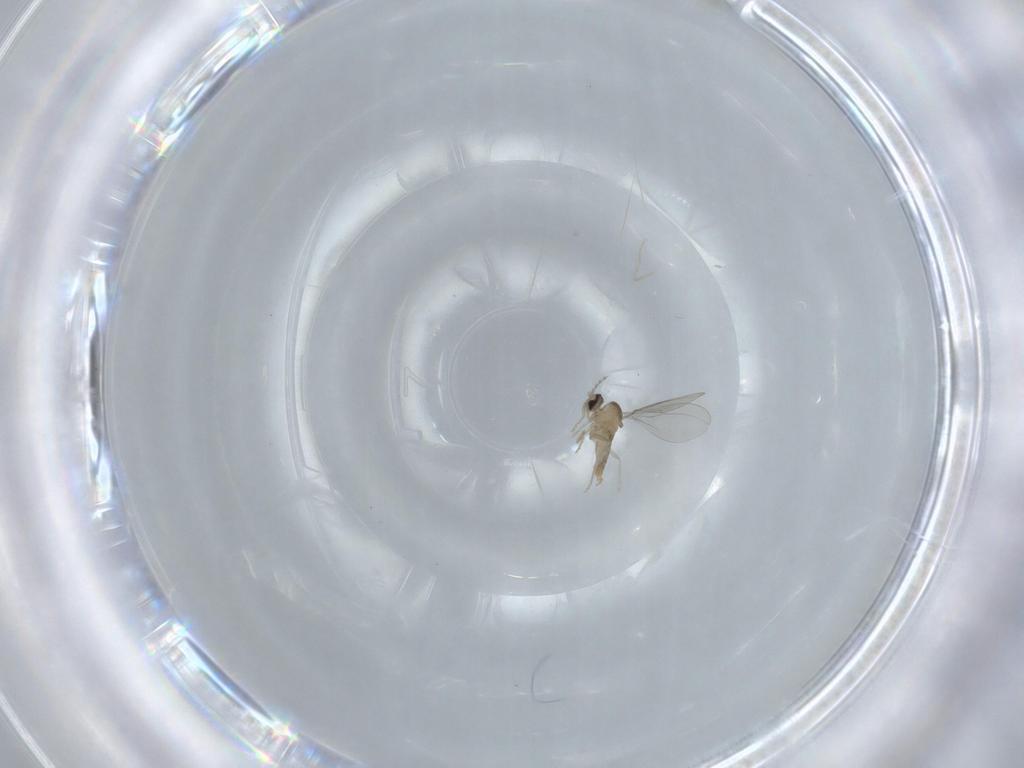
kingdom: Animalia
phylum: Arthropoda
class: Insecta
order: Diptera
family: Cecidomyiidae
